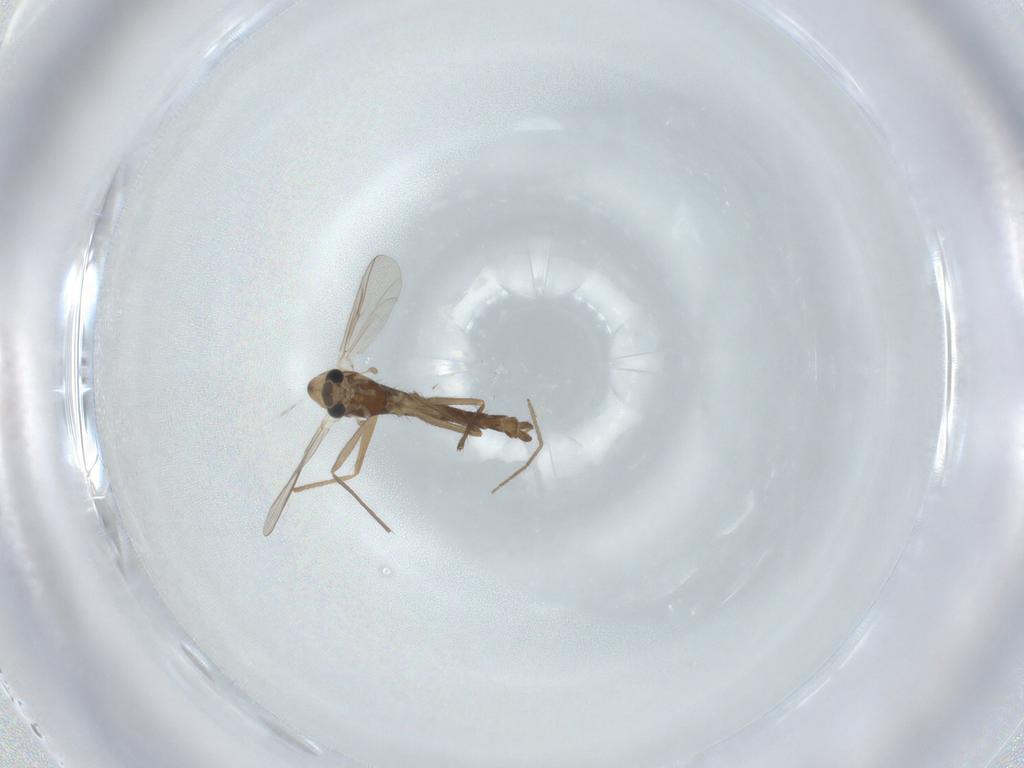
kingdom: Animalia
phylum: Arthropoda
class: Insecta
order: Diptera
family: Chironomidae
